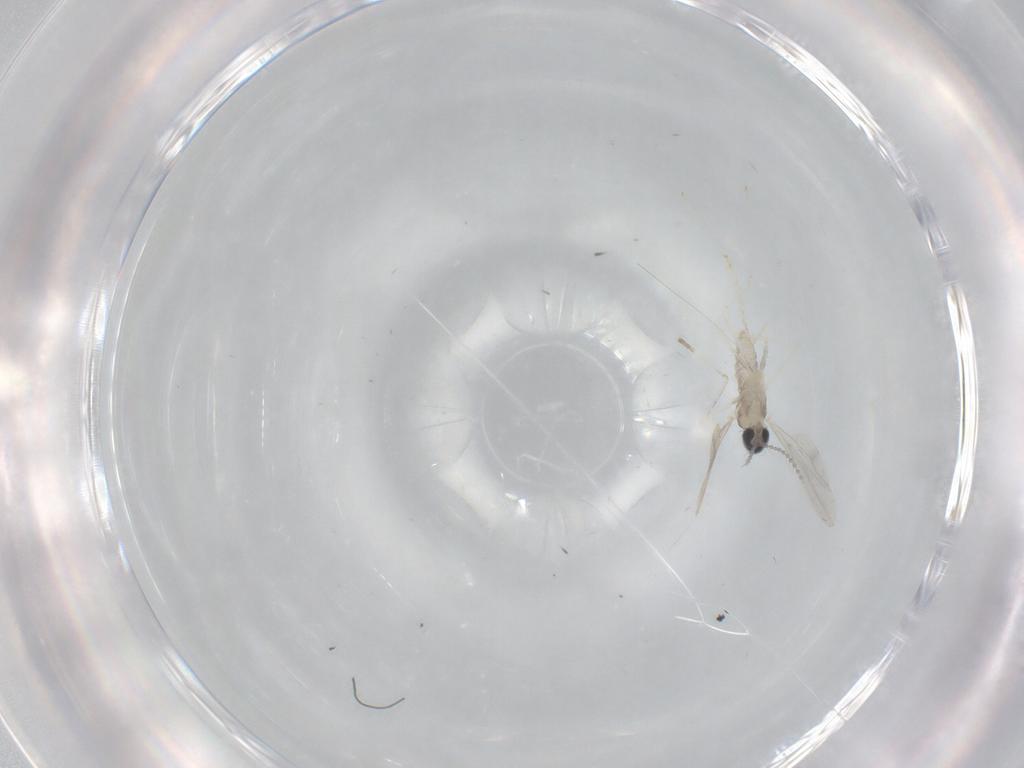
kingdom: Animalia
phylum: Arthropoda
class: Insecta
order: Diptera
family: Cecidomyiidae
